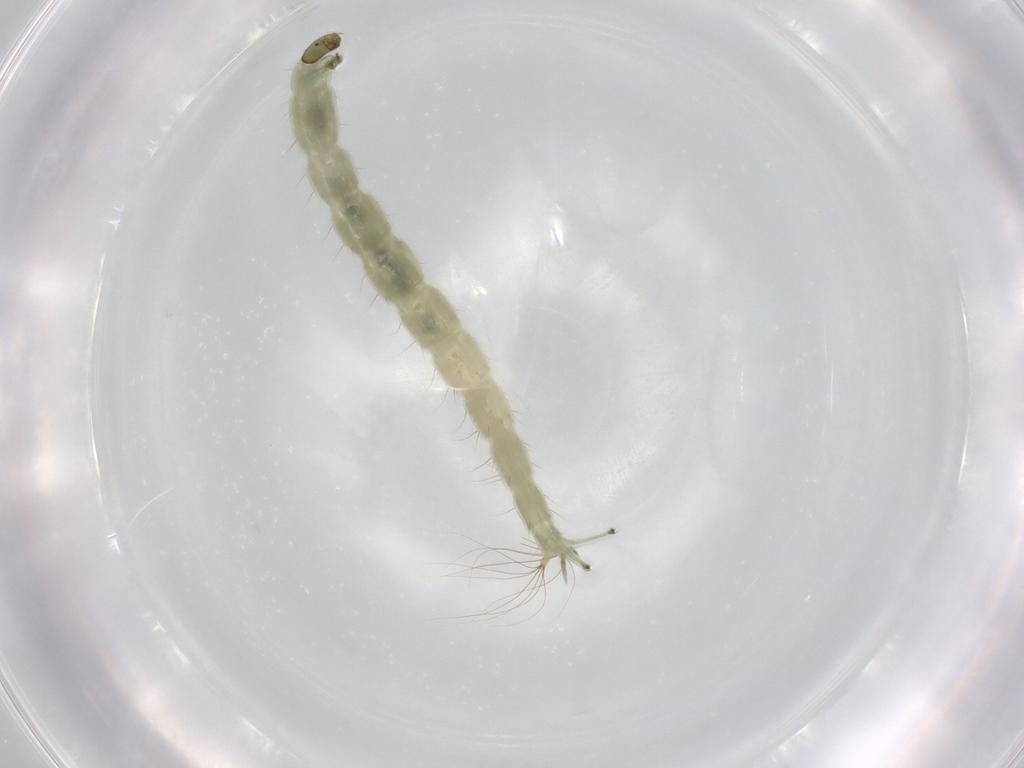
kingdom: Animalia
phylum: Arthropoda
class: Insecta
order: Diptera
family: Chironomidae
